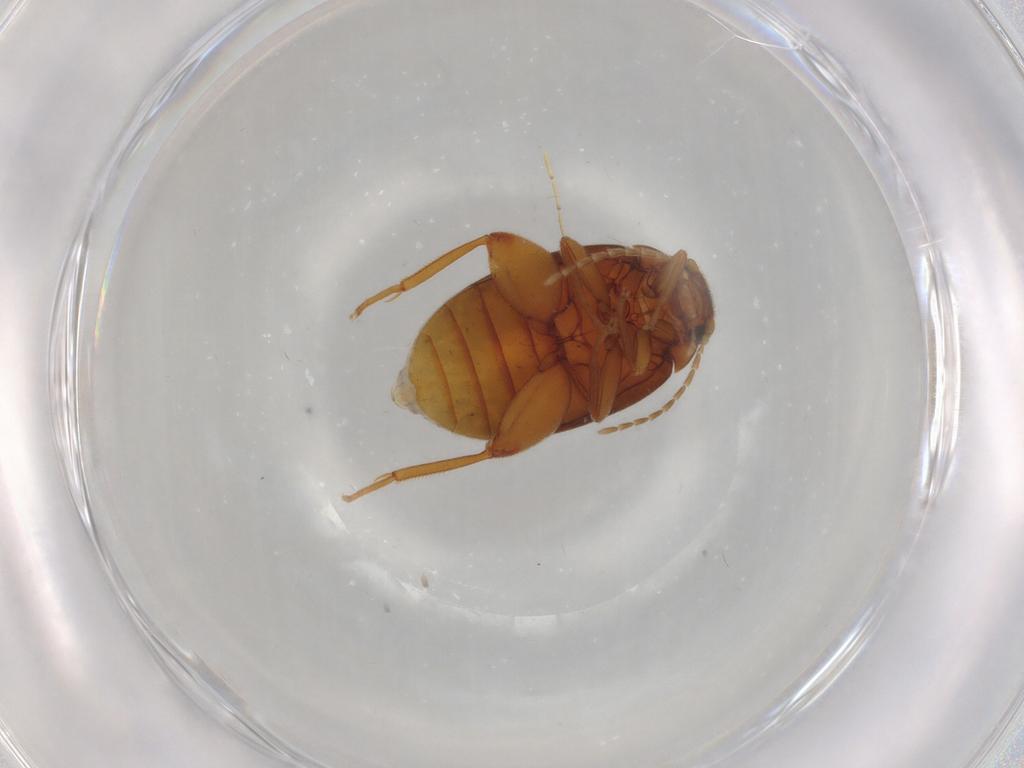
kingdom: Animalia
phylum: Arthropoda
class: Insecta
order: Coleoptera
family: Scirtidae
